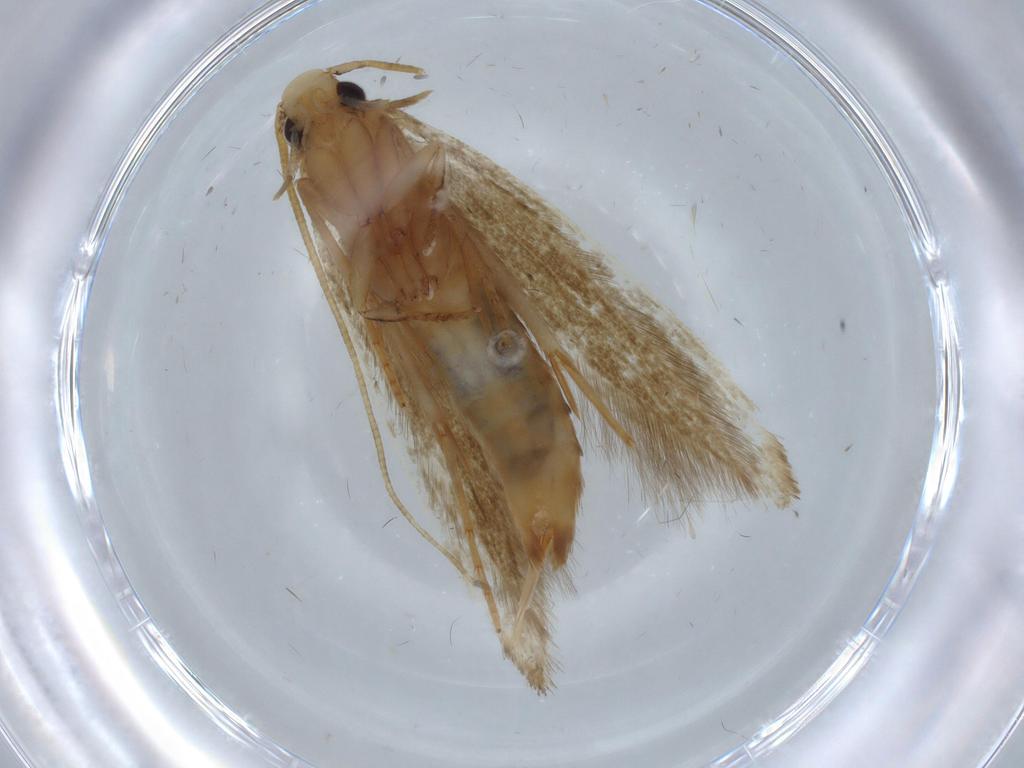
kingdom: Animalia
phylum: Arthropoda
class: Insecta
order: Lepidoptera
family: Tineidae
